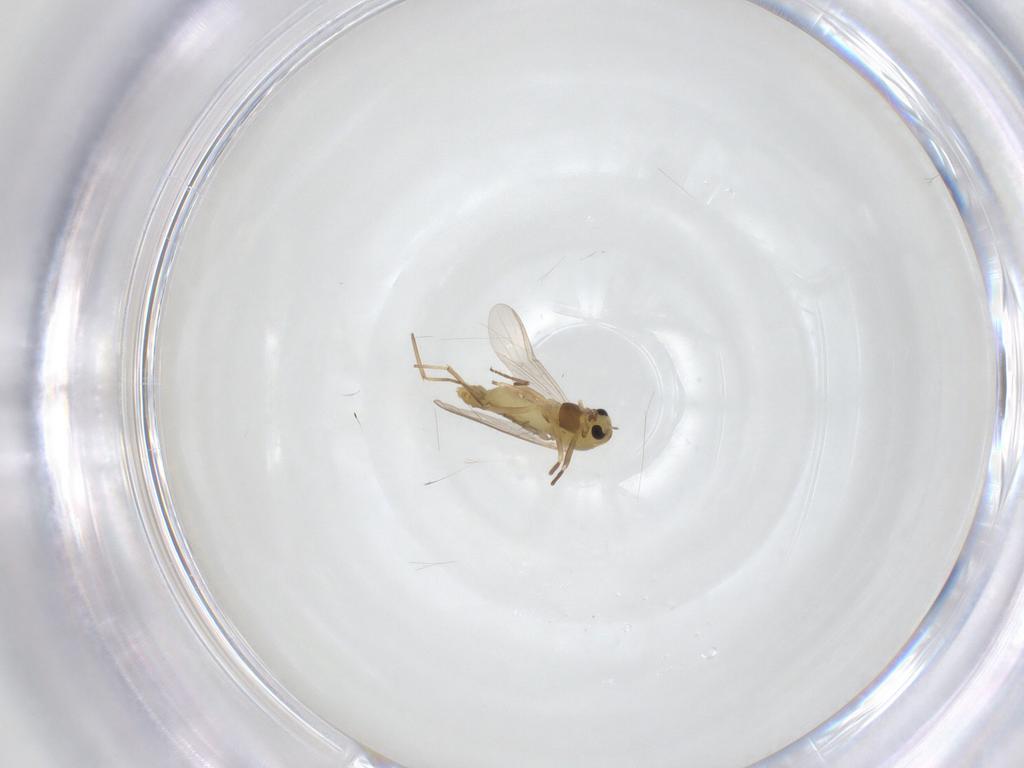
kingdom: Animalia
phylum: Arthropoda
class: Insecta
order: Diptera
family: Chironomidae
